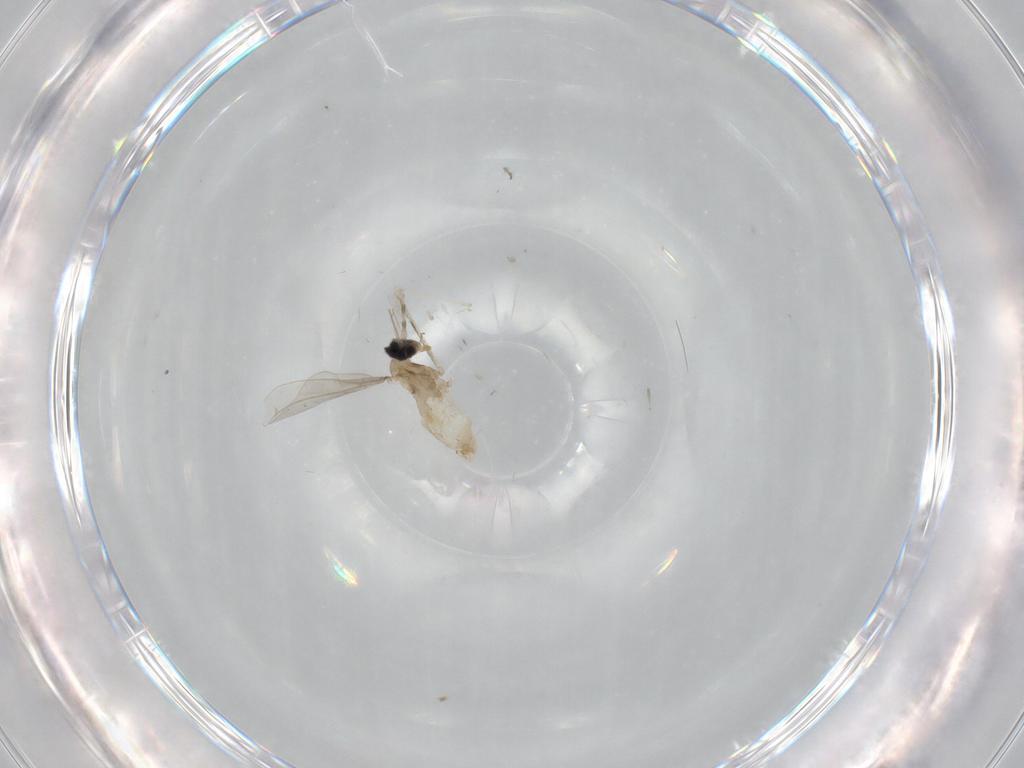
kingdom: Animalia
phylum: Arthropoda
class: Insecta
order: Diptera
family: Cecidomyiidae
